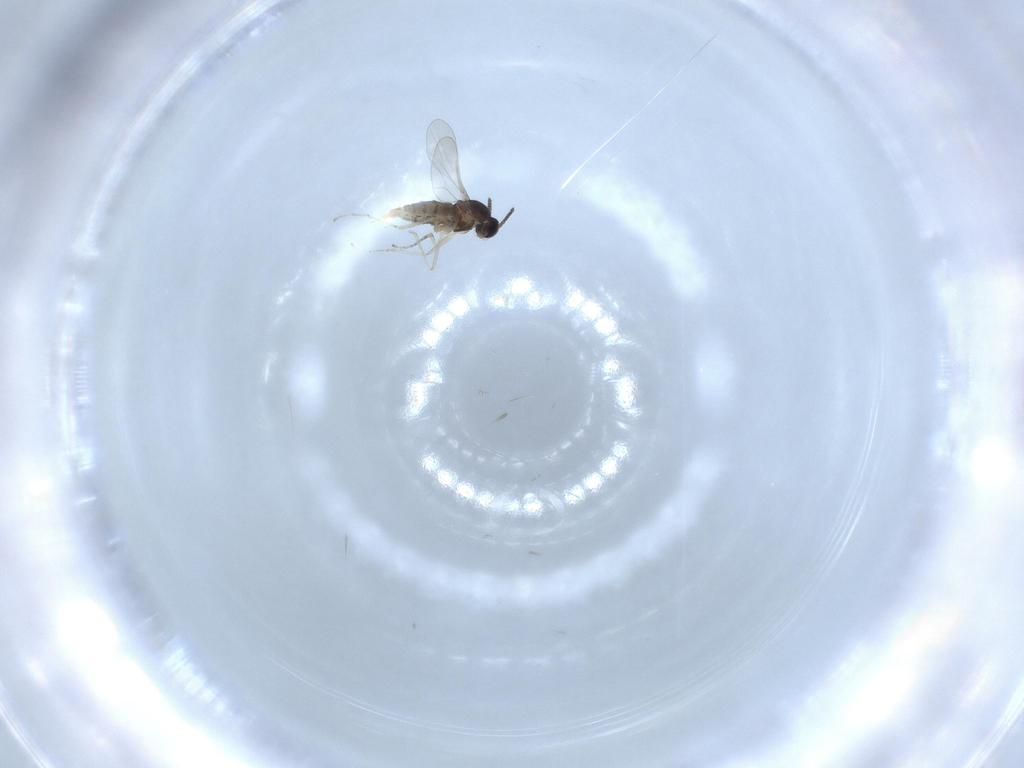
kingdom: Animalia
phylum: Arthropoda
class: Insecta
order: Diptera
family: Cecidomyiidae
